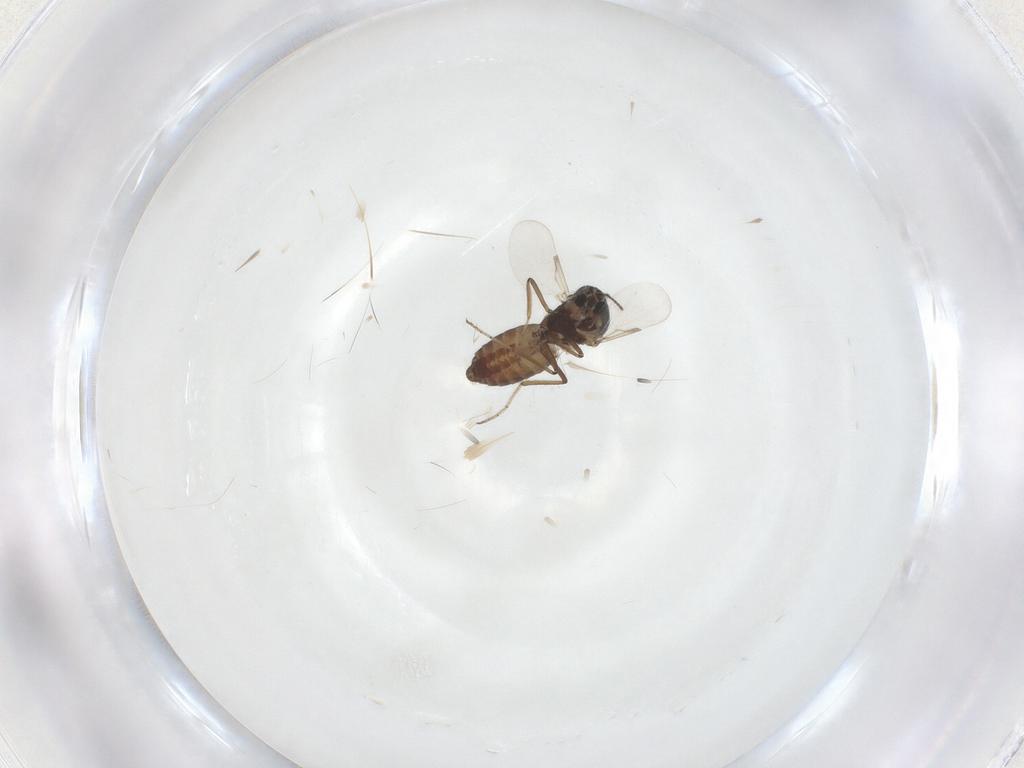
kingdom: Animalia
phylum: Arthropoda
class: Insecta
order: Diptera
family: Ceratopogonidae
